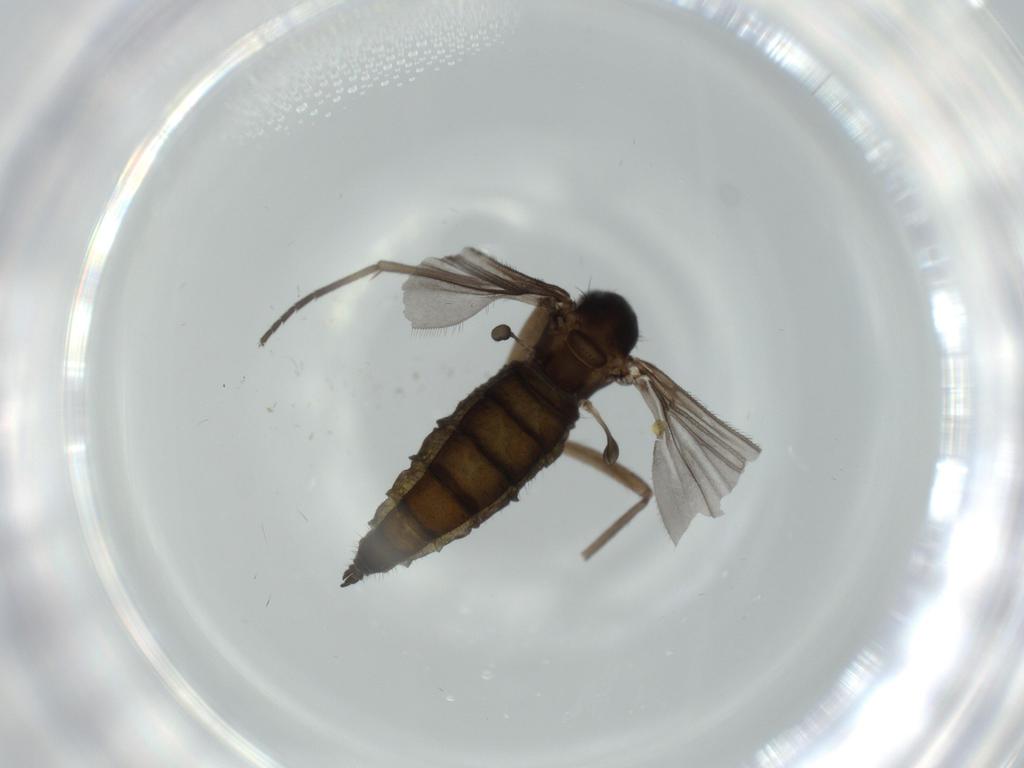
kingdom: Animalia
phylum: Arthropoda
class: Insecta
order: Diptera
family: Sciaridae
